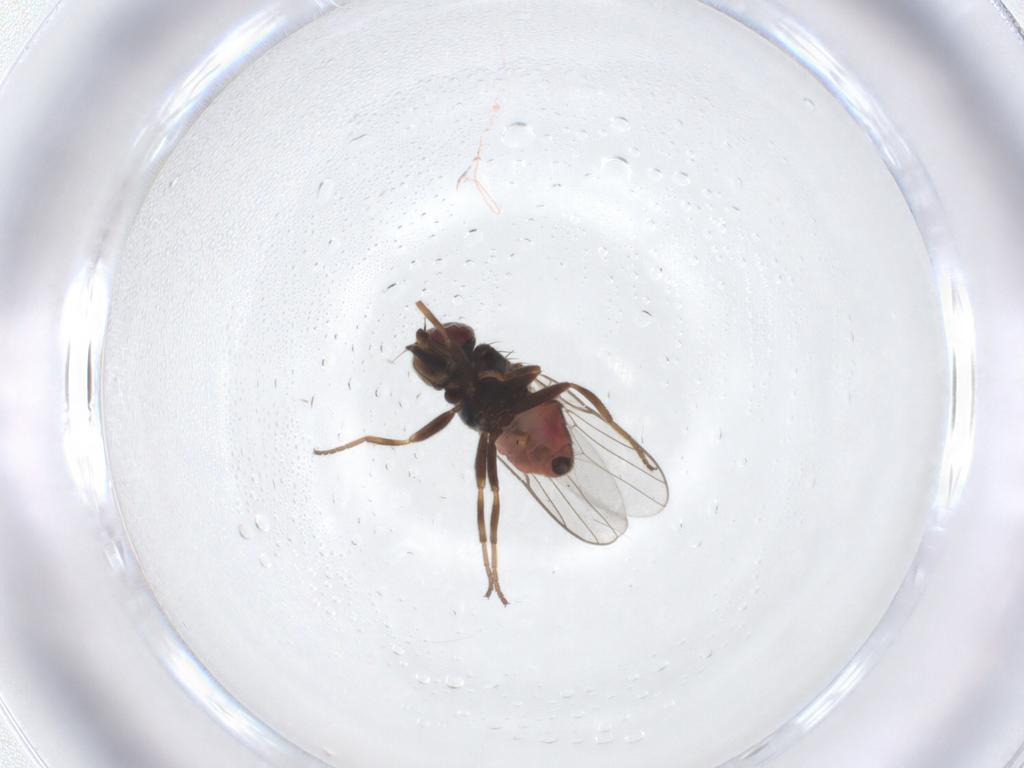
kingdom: Animalia
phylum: Arthropoda
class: Insecta
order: Diptera
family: Chloropidae
